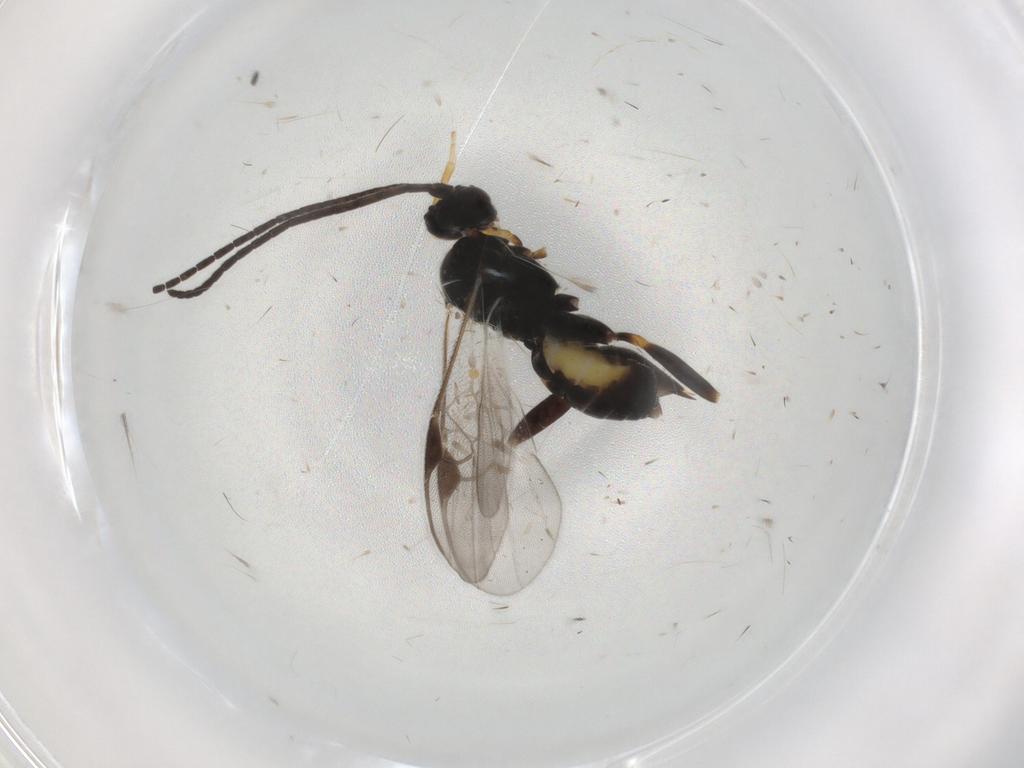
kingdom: Animalia
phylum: Arthropoda
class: Insecta
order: Hymenoptera
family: Braconidae
